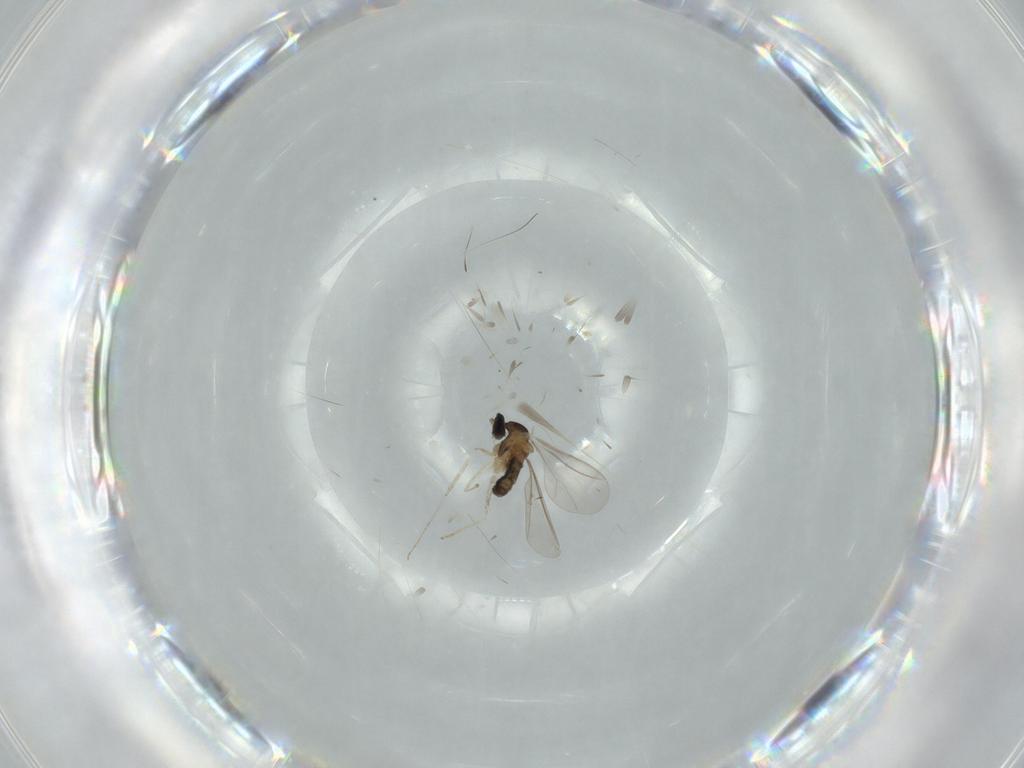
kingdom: Animalia
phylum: Arthropoda
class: Insecta
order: Diptera
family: Psychodidae
